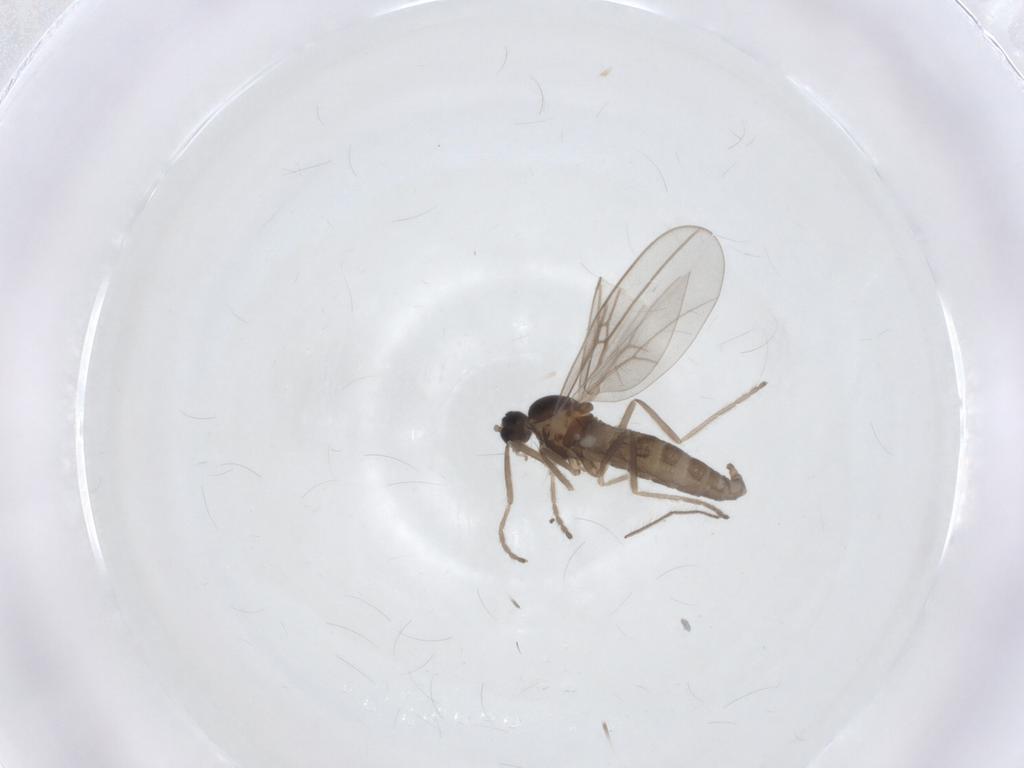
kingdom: Animalia
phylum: Arthropoda
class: Insecta
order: Diptera
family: Cecidomyiidae
